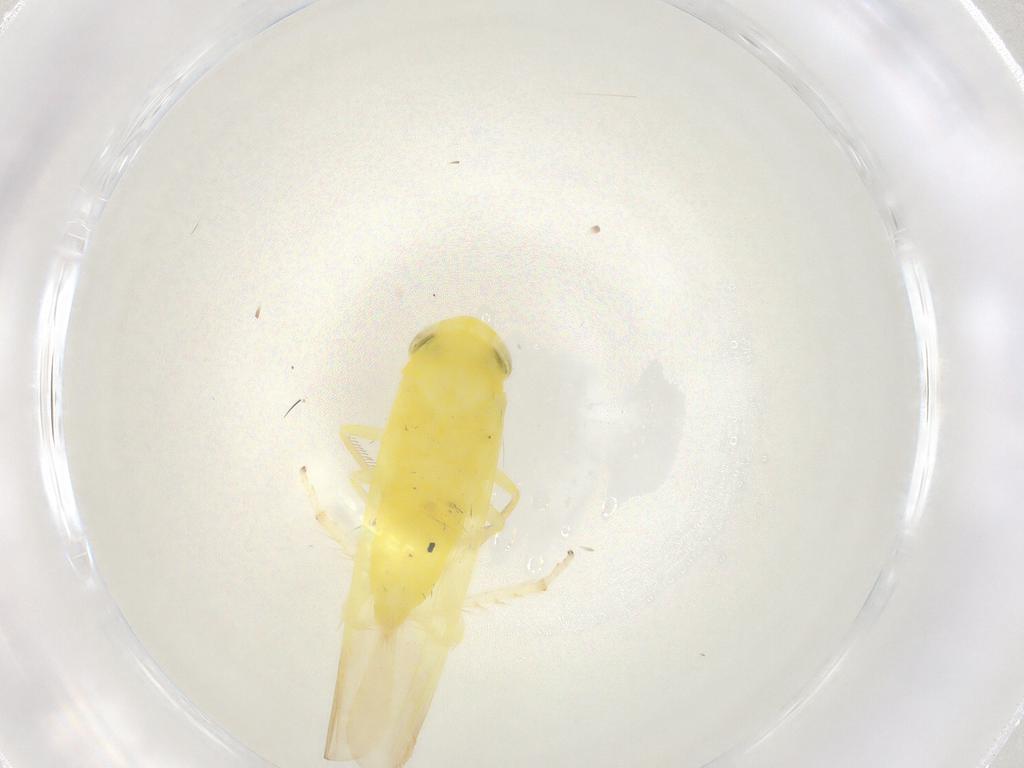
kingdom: Animalia
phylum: Arthropoda
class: Insecta
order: Hemiptera
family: Cicadellidae
